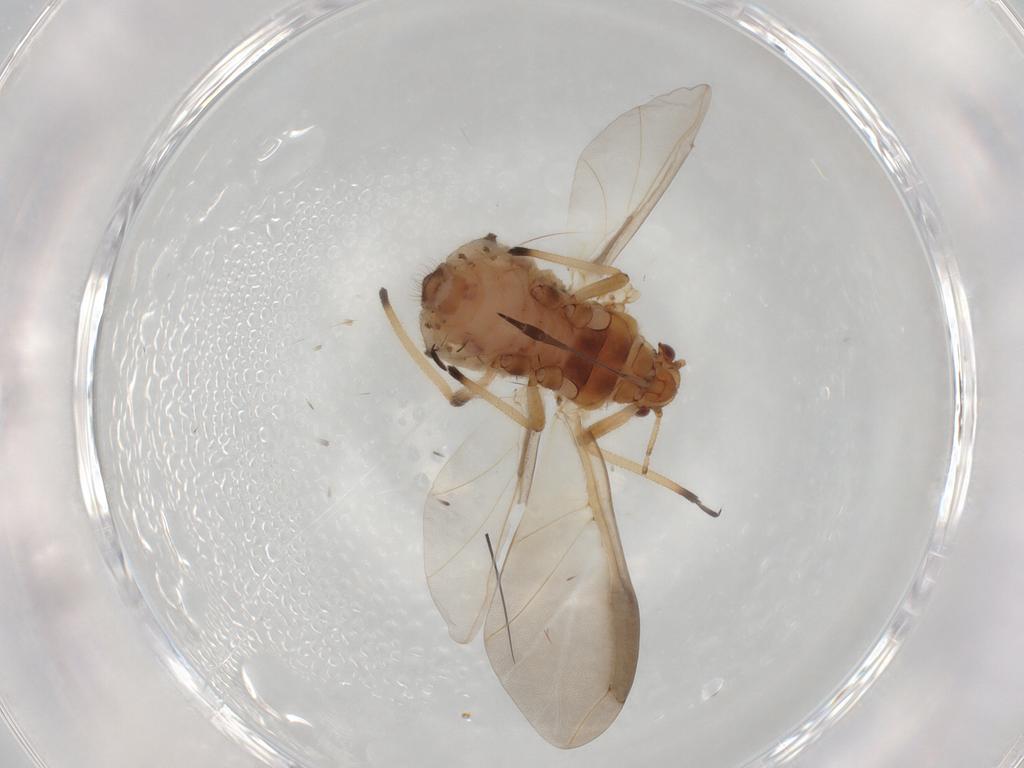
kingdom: Animalia
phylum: Arthropoda
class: Insecta
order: Hemiptera
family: Aphididae
